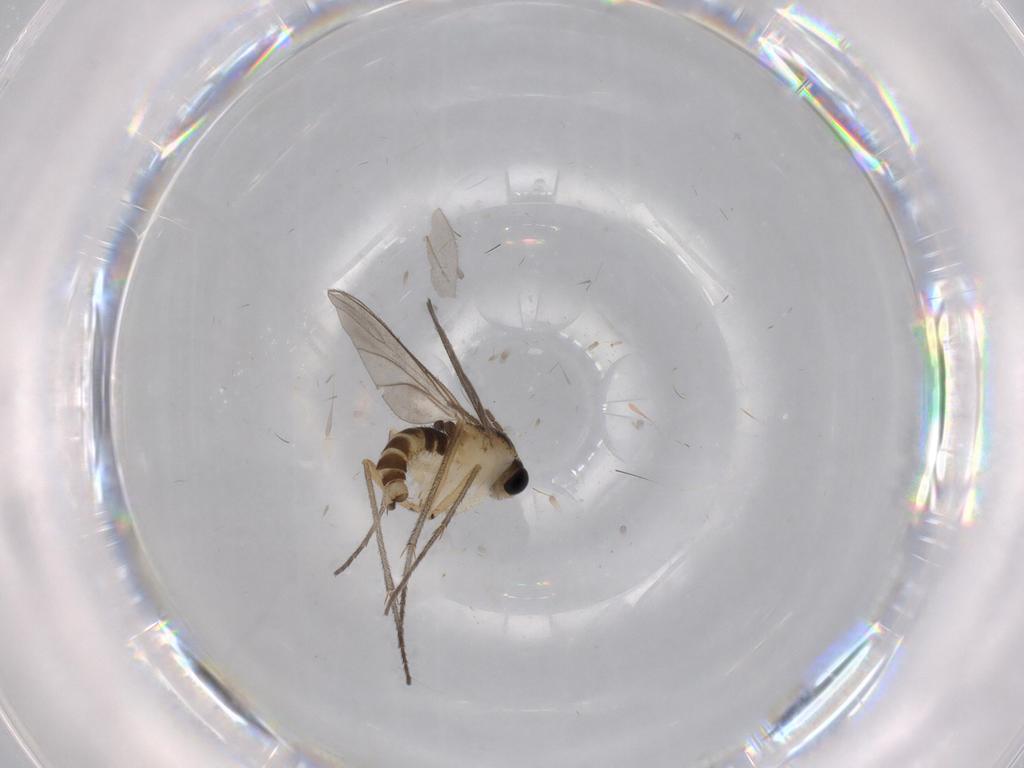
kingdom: Animalia
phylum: Arthropoda
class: Insecta
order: Diptera
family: Sciaridae
